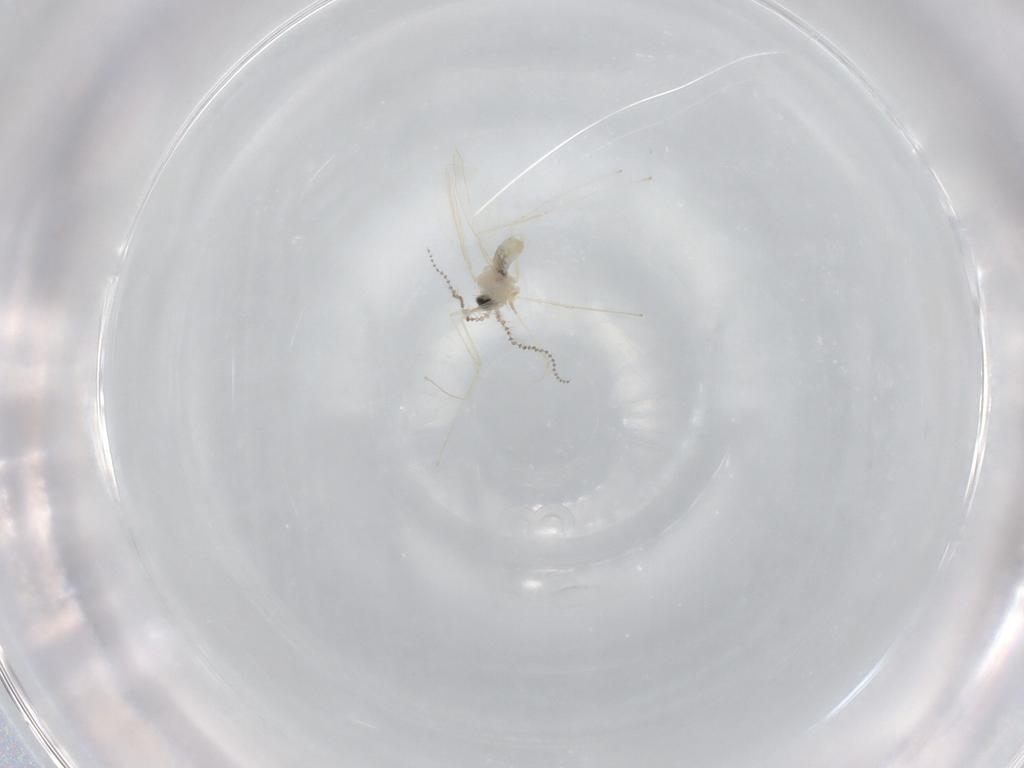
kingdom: Animalia
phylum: Arthropoda
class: Insecta
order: Diptera
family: Cecidomyiidae
